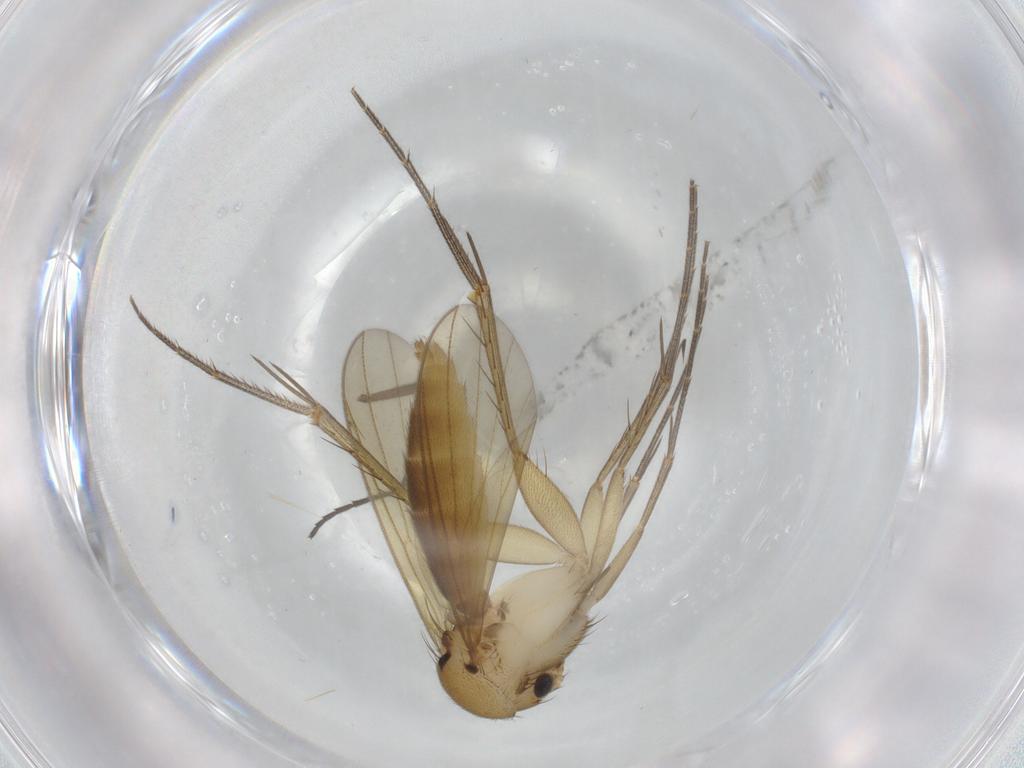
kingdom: Animalia
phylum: Arthropoda
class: Insecta
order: Diptera
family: Mycetophilidae
